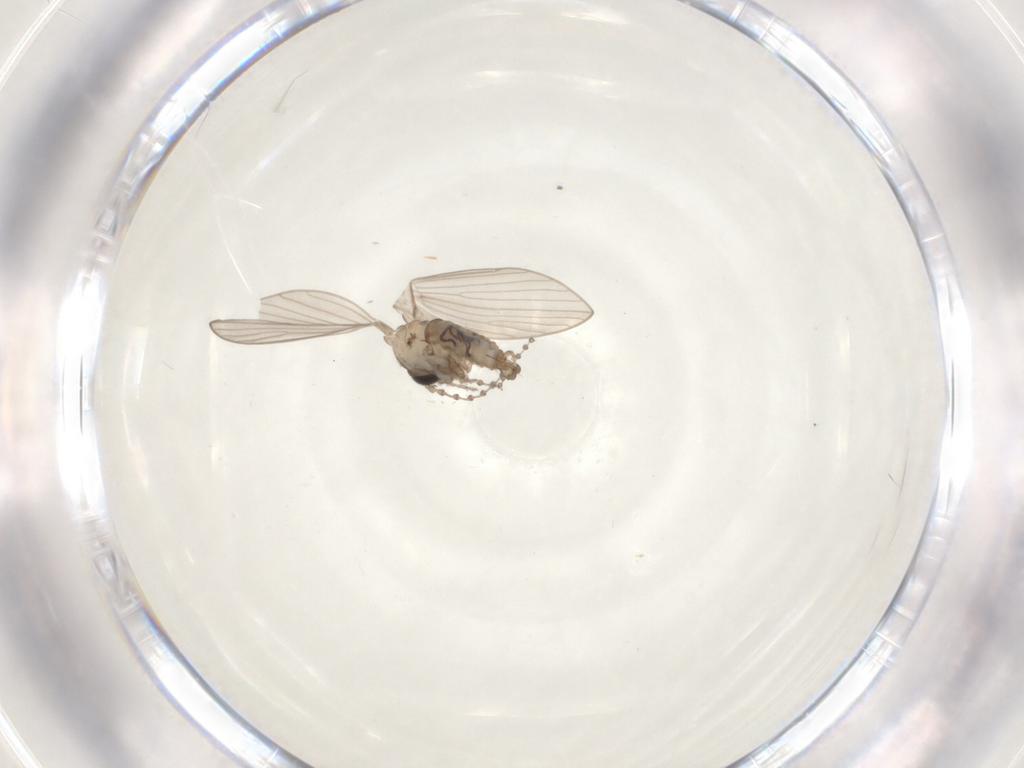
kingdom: Animalia
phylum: Arthropoda
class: Insecta
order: Diptera
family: Psychodidae
